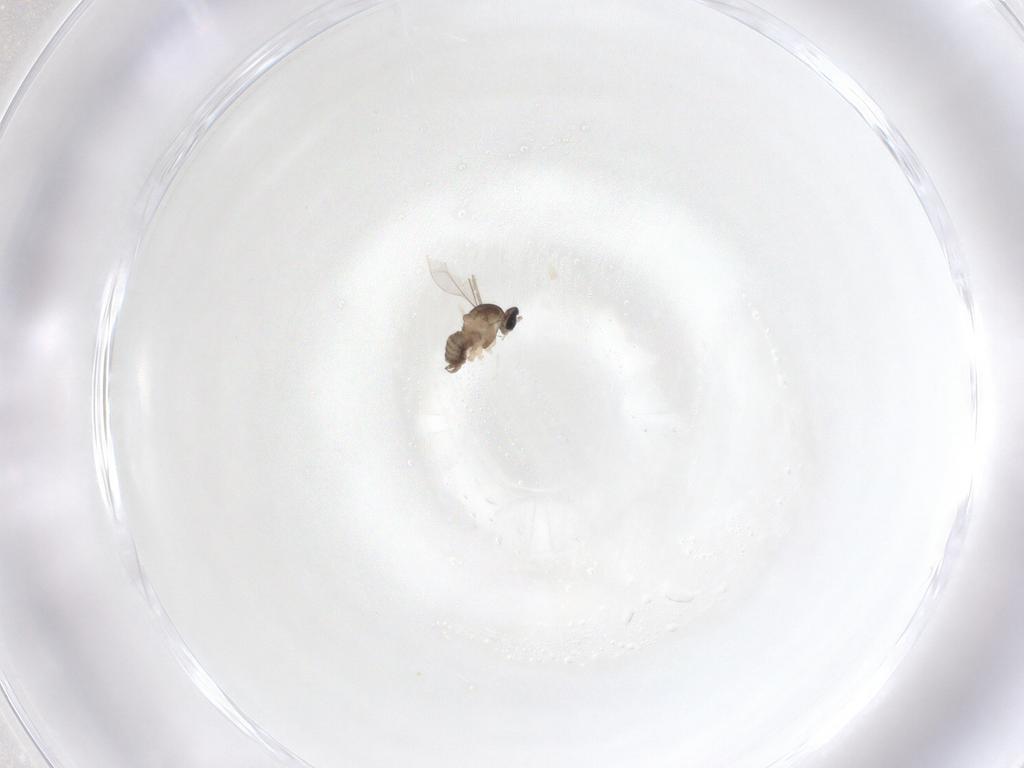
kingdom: Animalia
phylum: Arthropoda
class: Insecta
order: Diptera
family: Cecidomyiidae
